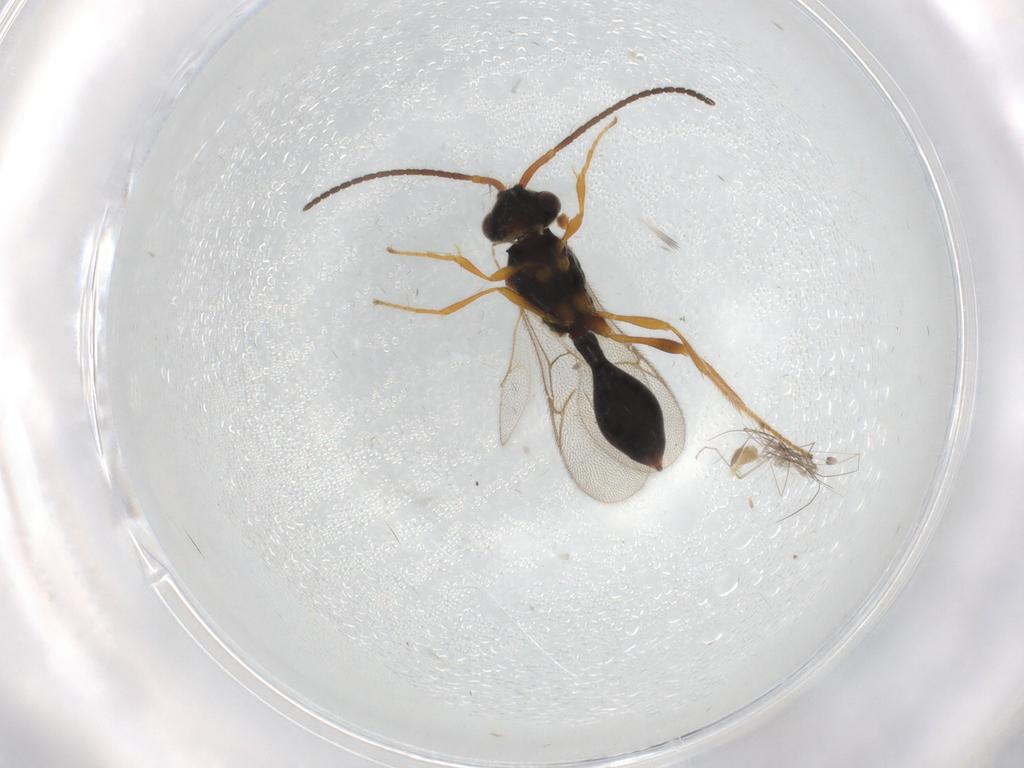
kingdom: Animalia
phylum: Arthropoda
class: Insecta
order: Hymenoptera
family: Diapriidae
